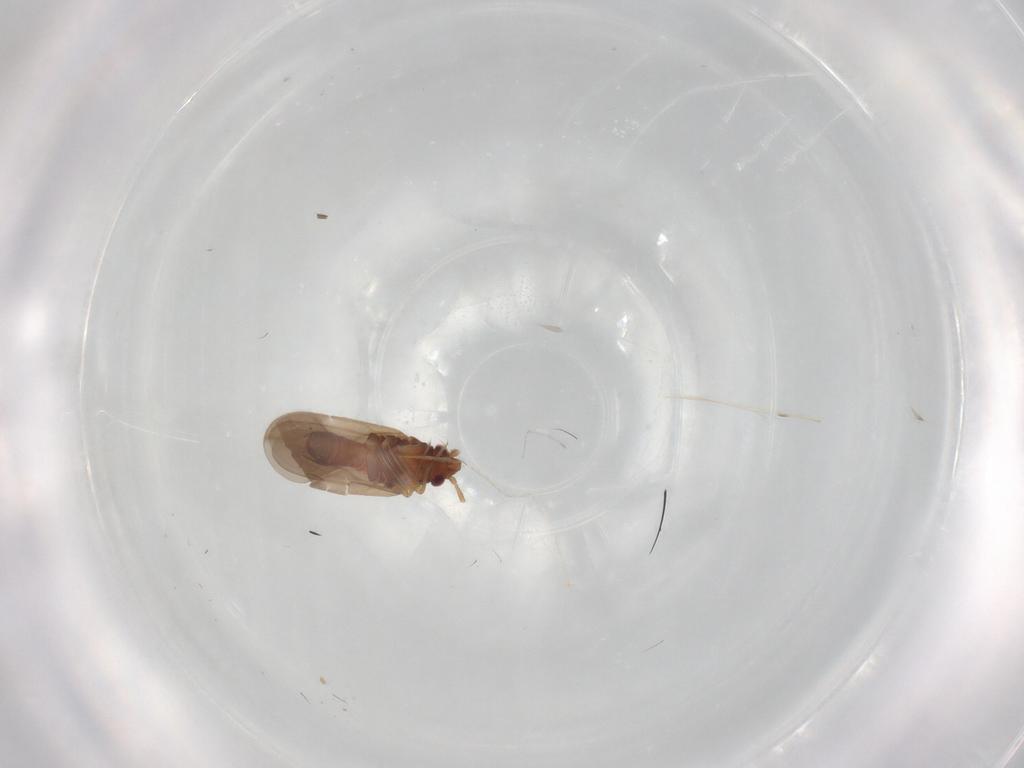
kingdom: Animalia
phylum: Arthropoda
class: Insecta
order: Hemiptera
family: Ceratocombidae
